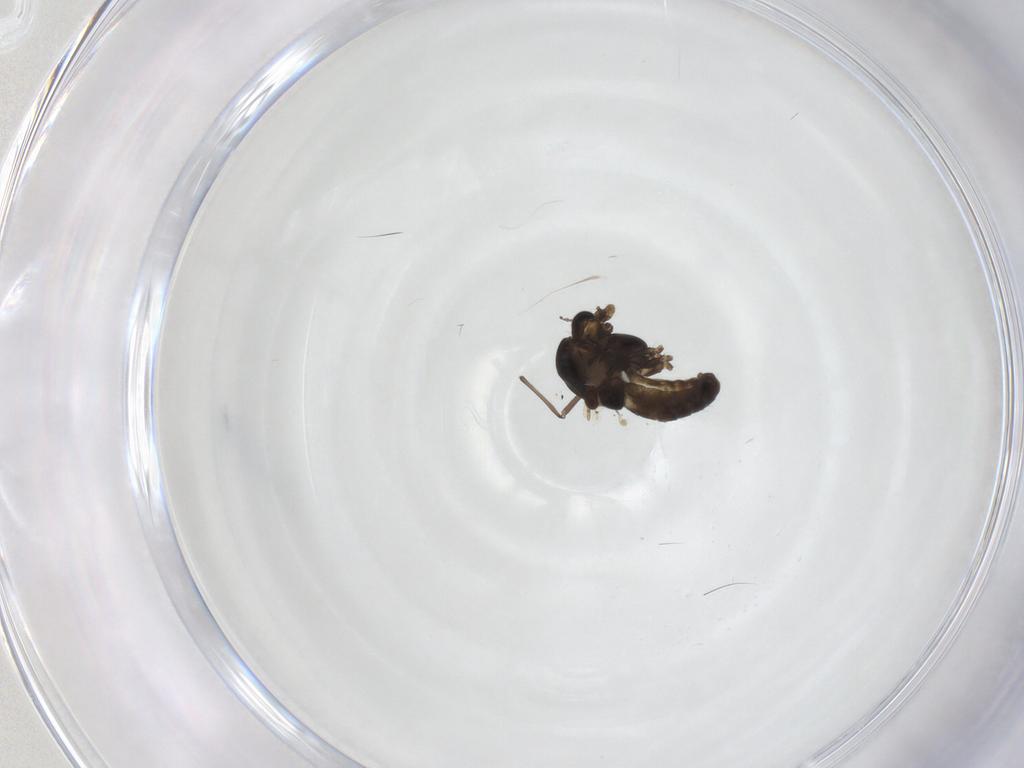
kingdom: Animalia
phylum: Arthropoda
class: Insecta
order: Diptera
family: Chironomidae
